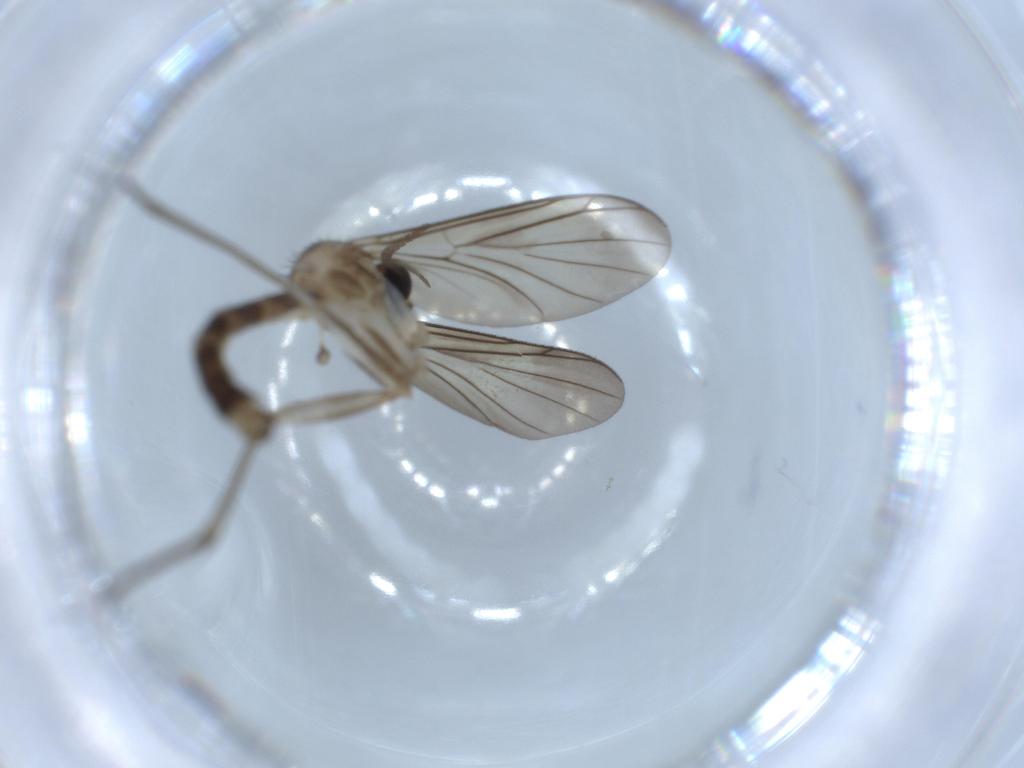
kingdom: Animalia
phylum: Arthropoda
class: Insecta
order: Diptera
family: Mycetophilidae
